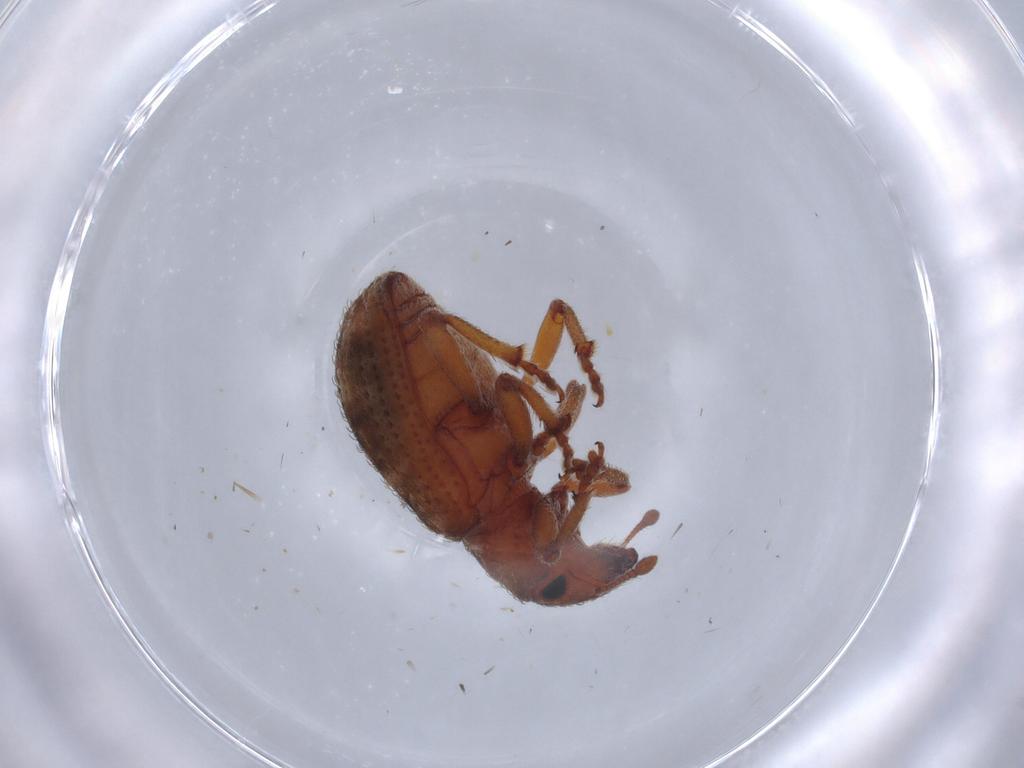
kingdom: Animalia
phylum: Arthropoda
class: Insecta
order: Coleoptera
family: Curculionidae
